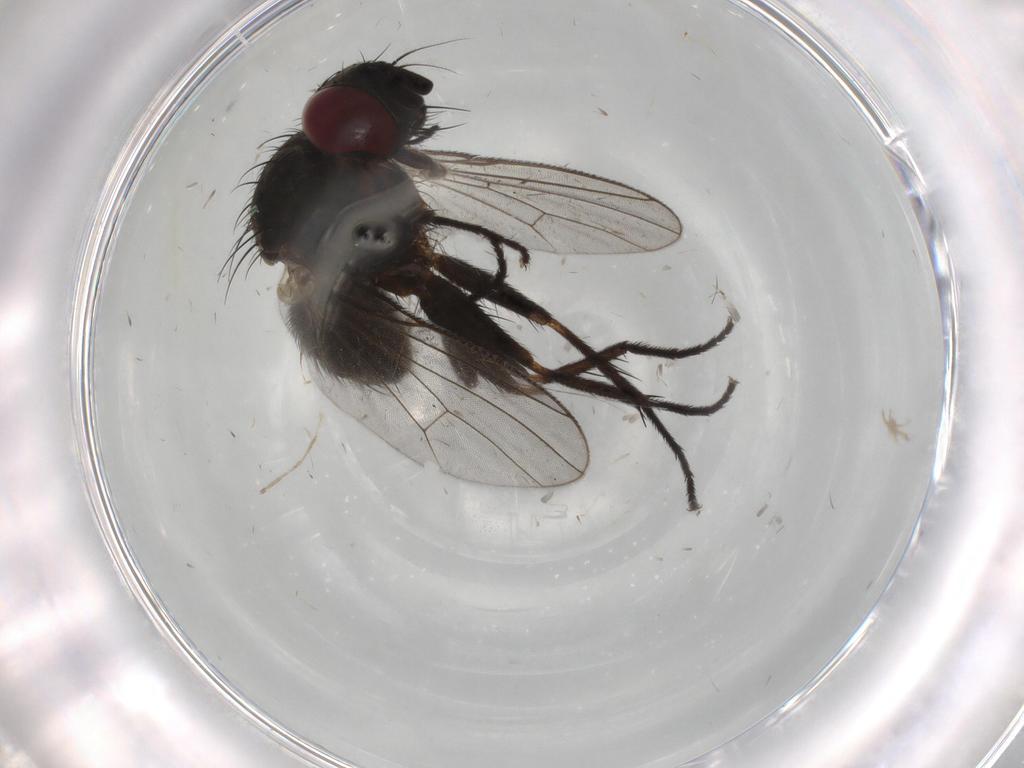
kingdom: Animalia
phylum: Arthropoda
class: Insecta
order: Diptera
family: Muscidae
